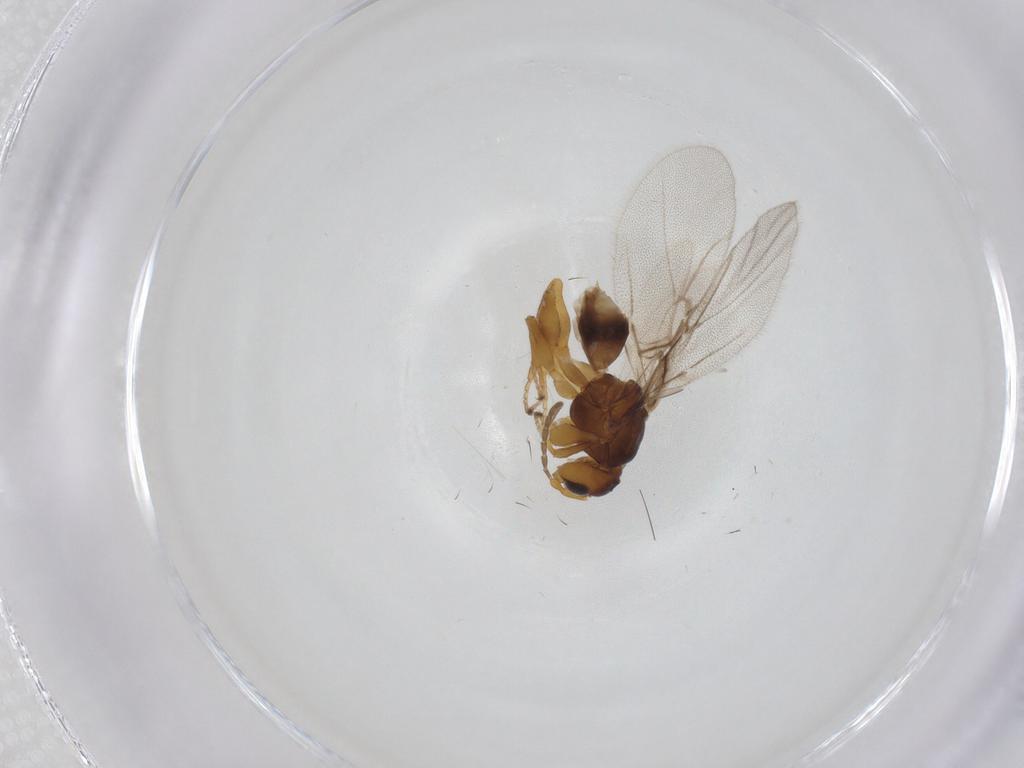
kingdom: Animalia
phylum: Arthropoda
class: Insecta
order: Hymenoptera
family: Cynipidae
